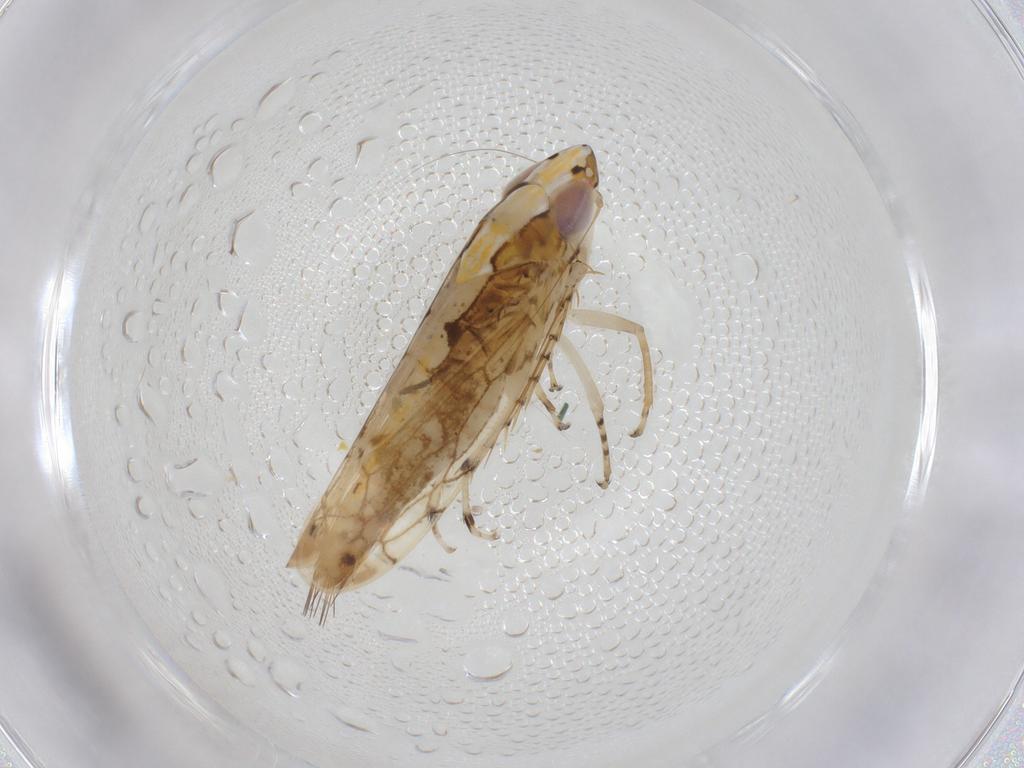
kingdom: Animalia
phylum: Arthropoda
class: Insecta
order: Hemiptera
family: Cicadellidae
